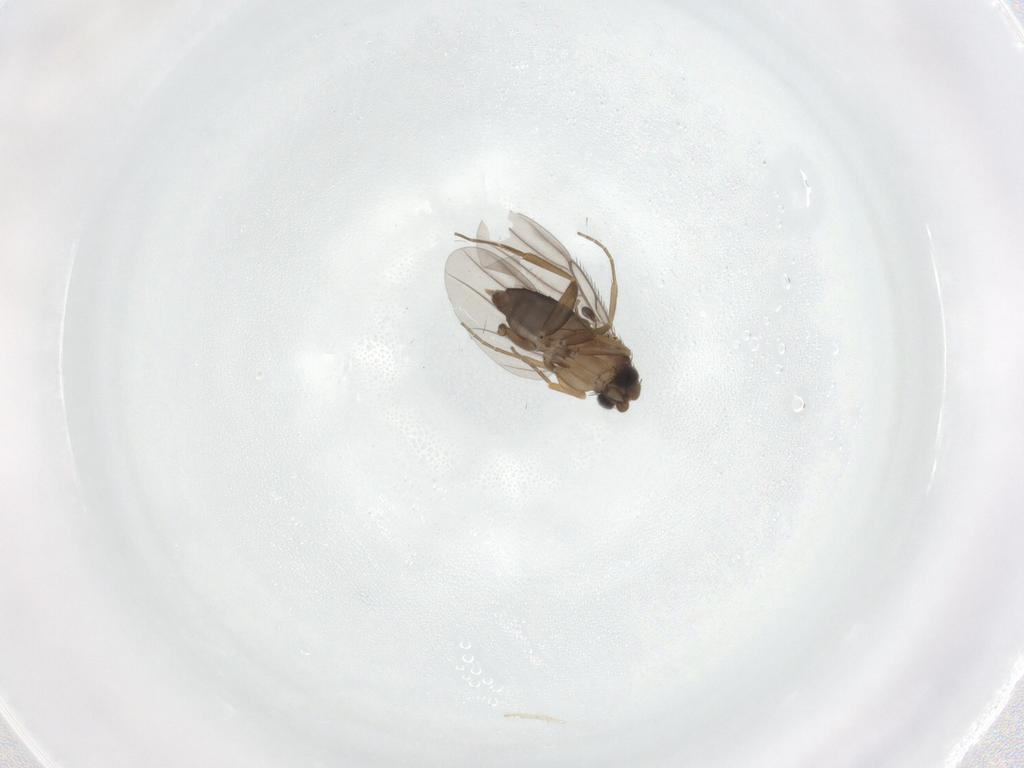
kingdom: Animalia
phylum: Arthropoda
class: Insecta
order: Diptera
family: Phoridae
